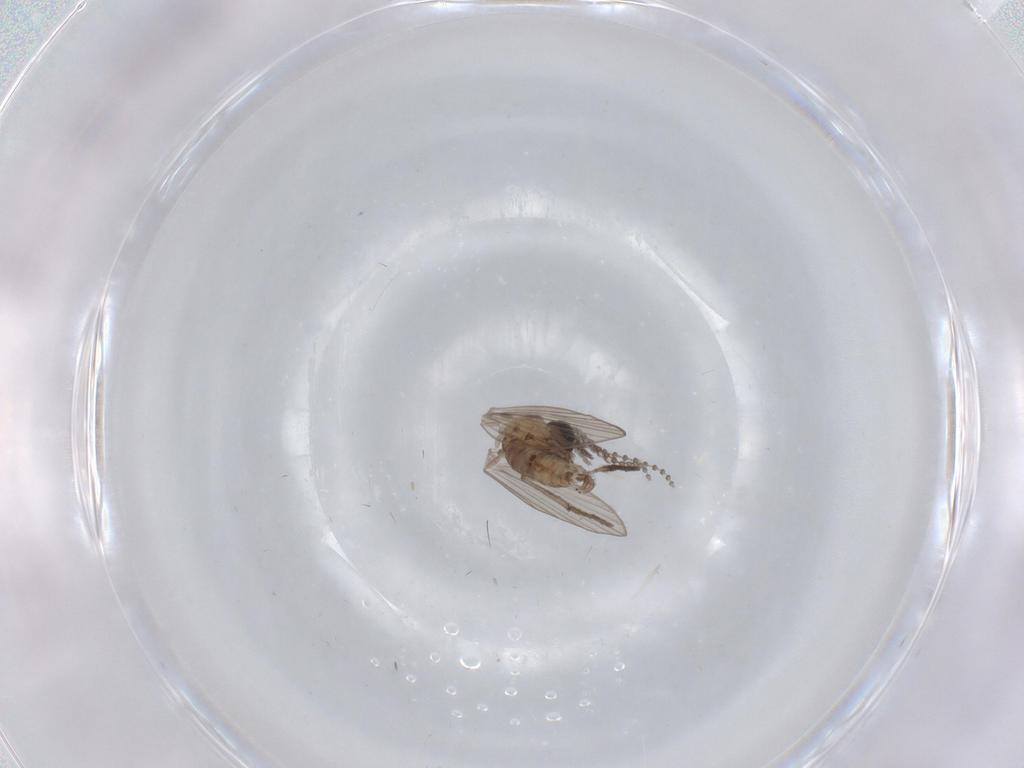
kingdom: Animalia
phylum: Arthropoda
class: Insecta
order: Diptera
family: Psychodidae
